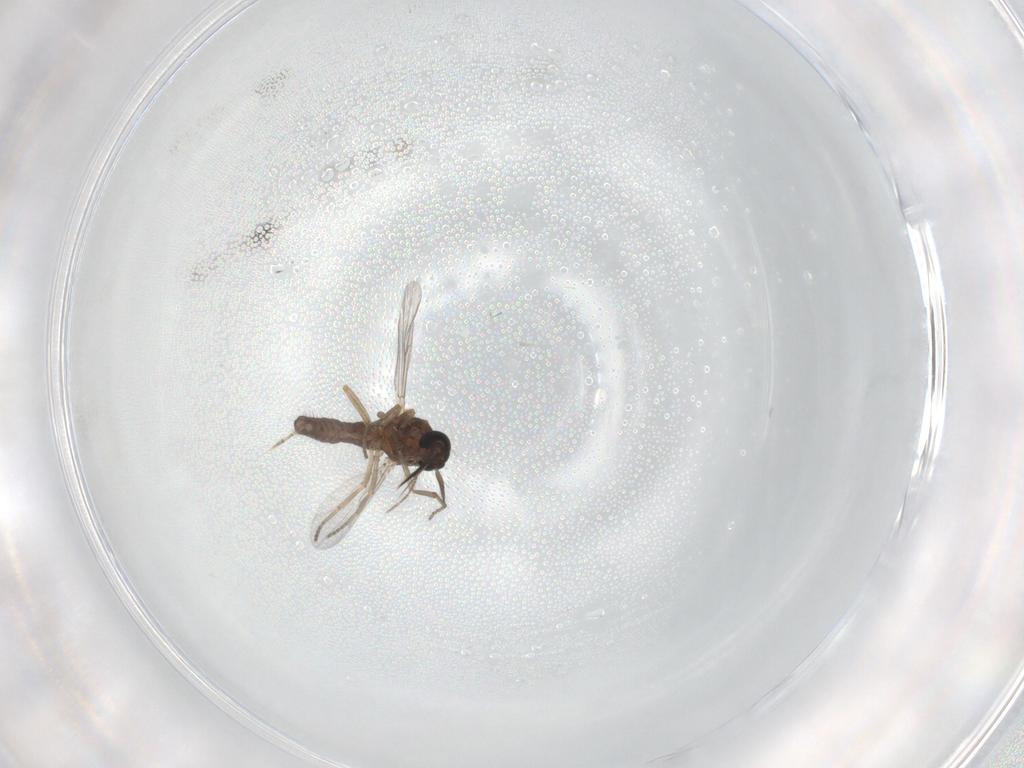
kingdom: Animalia
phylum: Arthropoda
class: Insecta
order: Diptera
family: Ceratopogonidae
